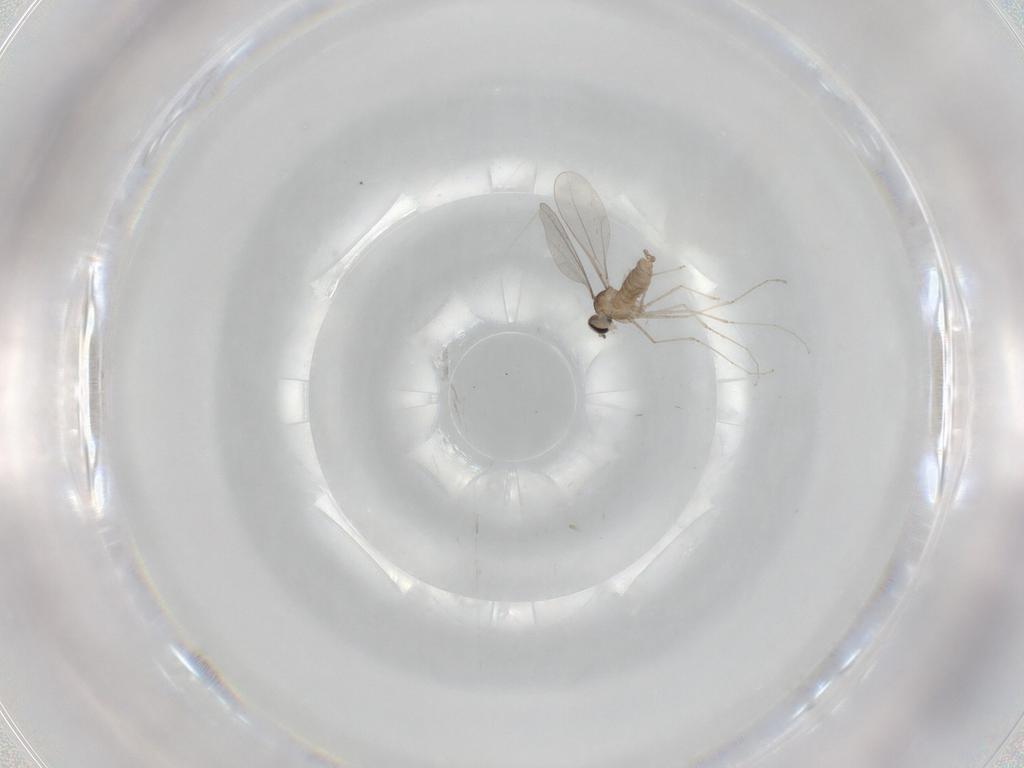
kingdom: Animalia
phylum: Arthropoda
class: Insecta
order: Diptera
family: Cecidomyiidae
